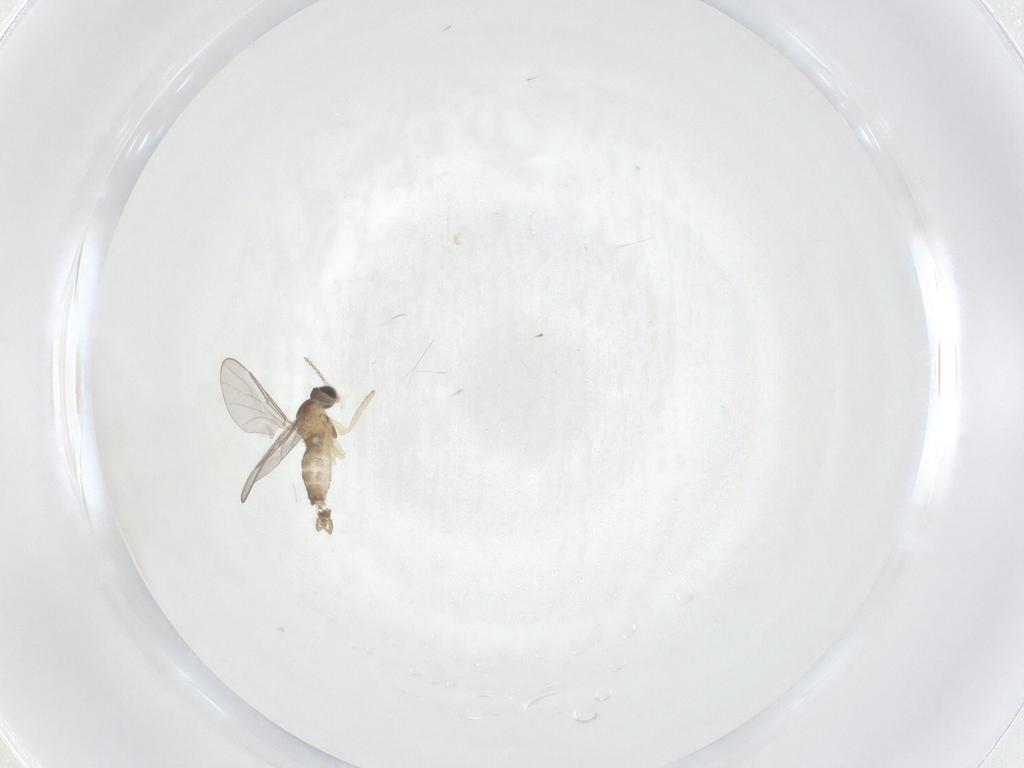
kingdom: Animalia
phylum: Arthropoda
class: Insecta
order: Diptera
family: Cecidomyiidae
